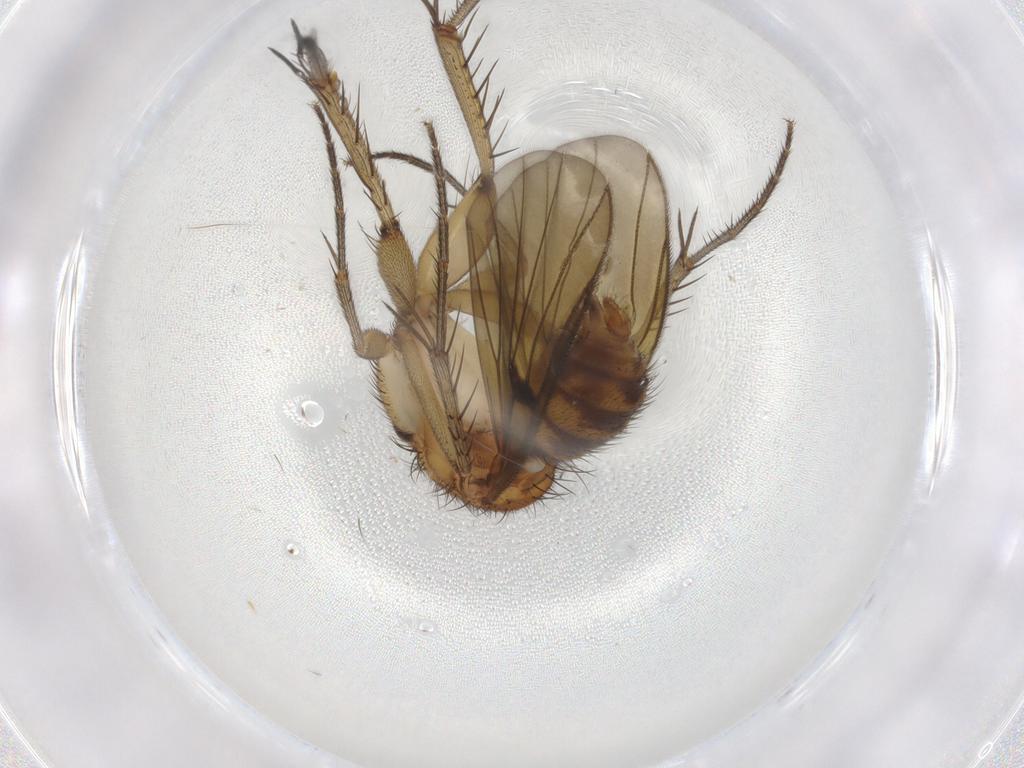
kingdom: Animalia
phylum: Arthropoda
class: Insecta
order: Diptera
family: Mycetophilidae
